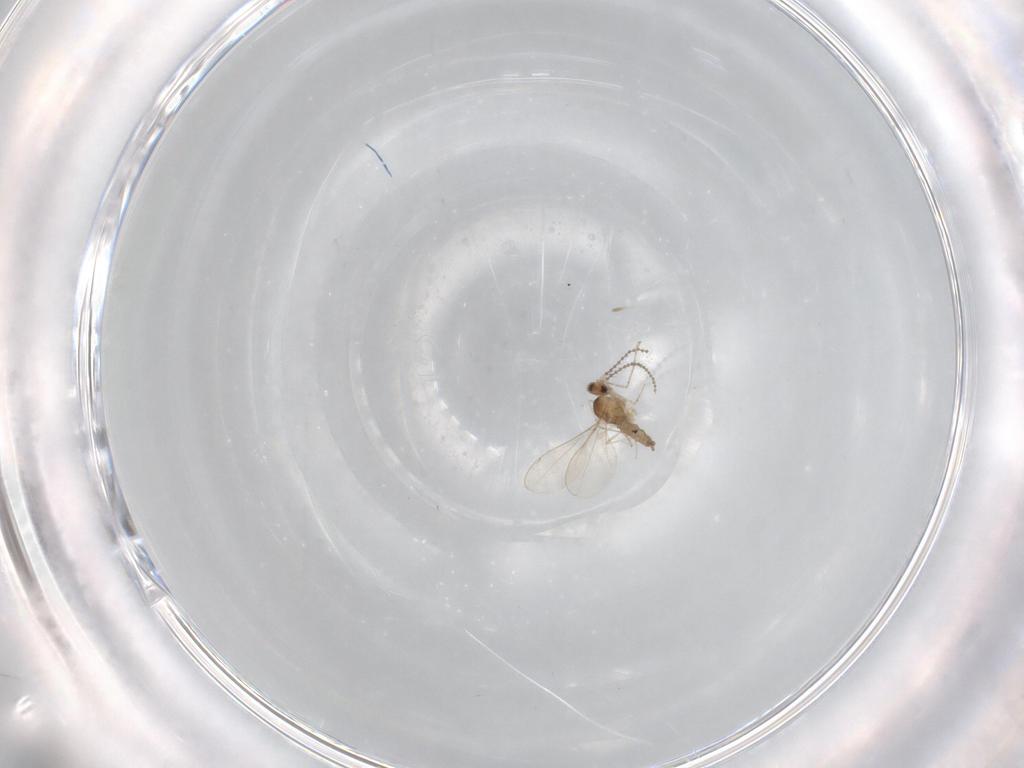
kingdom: Animalia
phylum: Arthropoda
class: Insecta
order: Diptera
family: Cecidomyiidae
